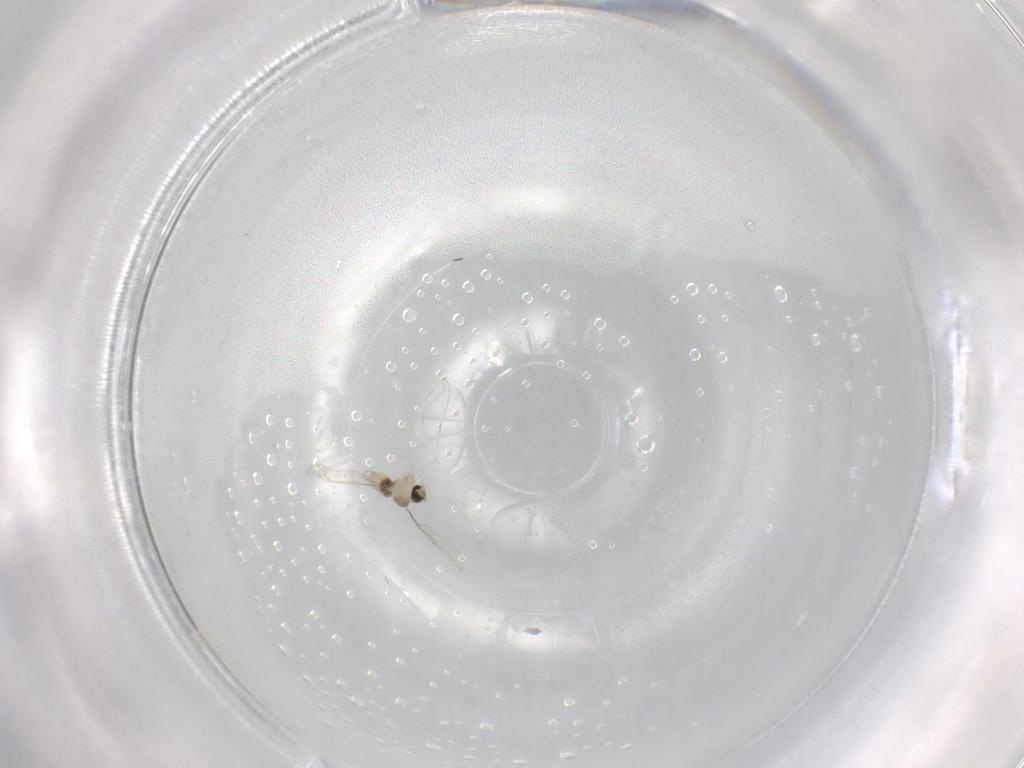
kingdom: Animalia
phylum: Arthropoda
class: Insecta
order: Diptera
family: Cecidomyiidae
